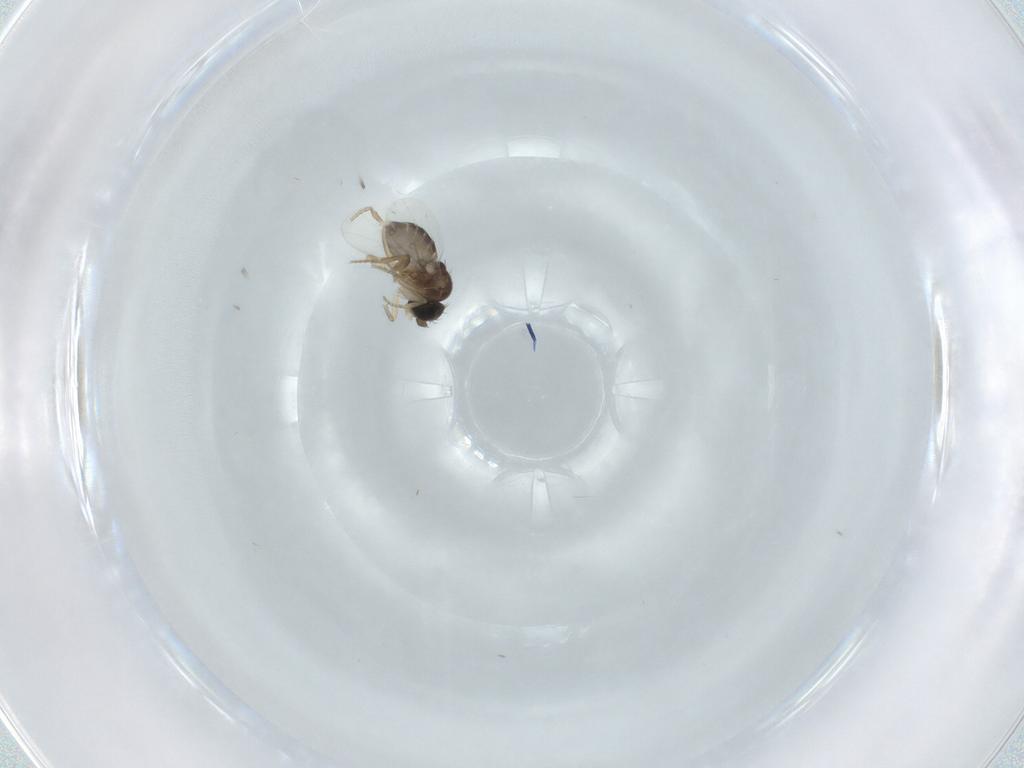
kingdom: Animalia
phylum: Arthropoda
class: Insecta
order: Diptera
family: Phoridae
